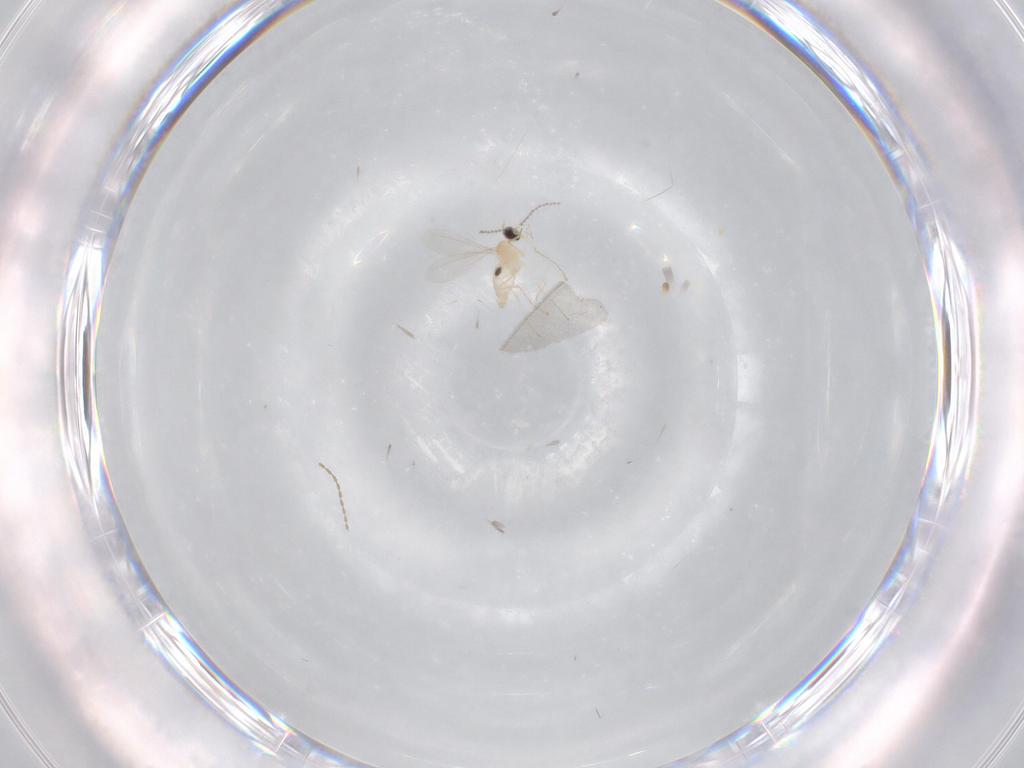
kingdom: Animalia
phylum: Arthropoda
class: Insecta
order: Diptera
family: Cecidomyiidae
